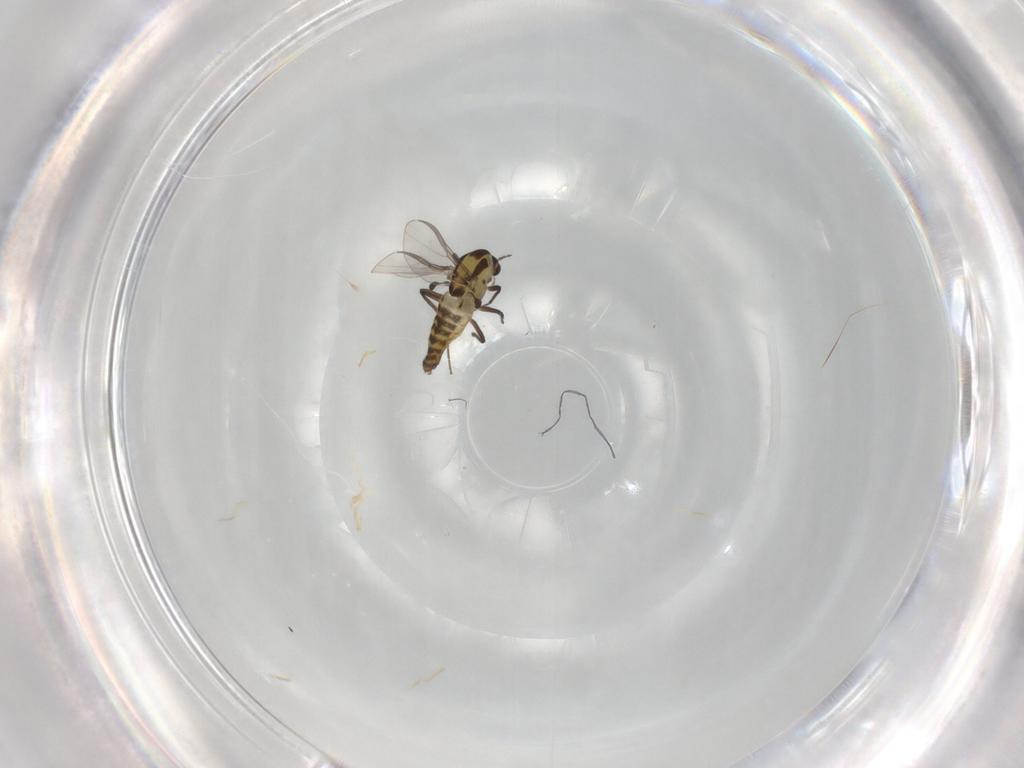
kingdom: Animalia
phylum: Arthropoda
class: Insecta
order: Diptera
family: Chironomidae
